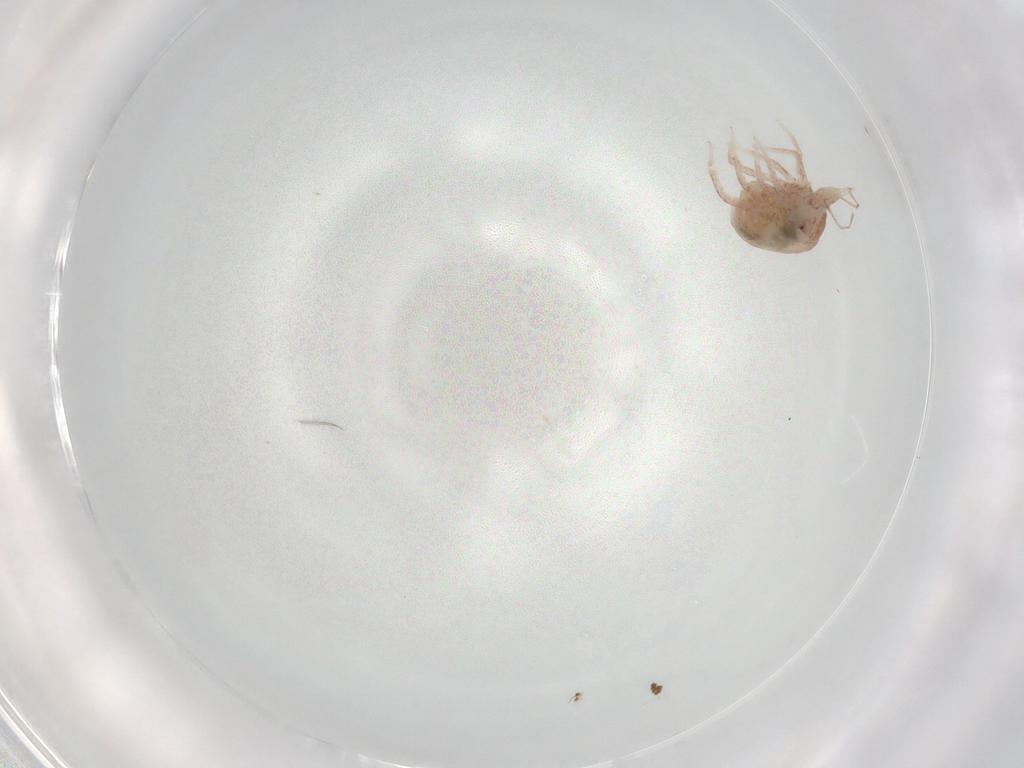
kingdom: Animalia
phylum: Arthropoda
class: Arachnida
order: Trombidiformes
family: Bdellidae
